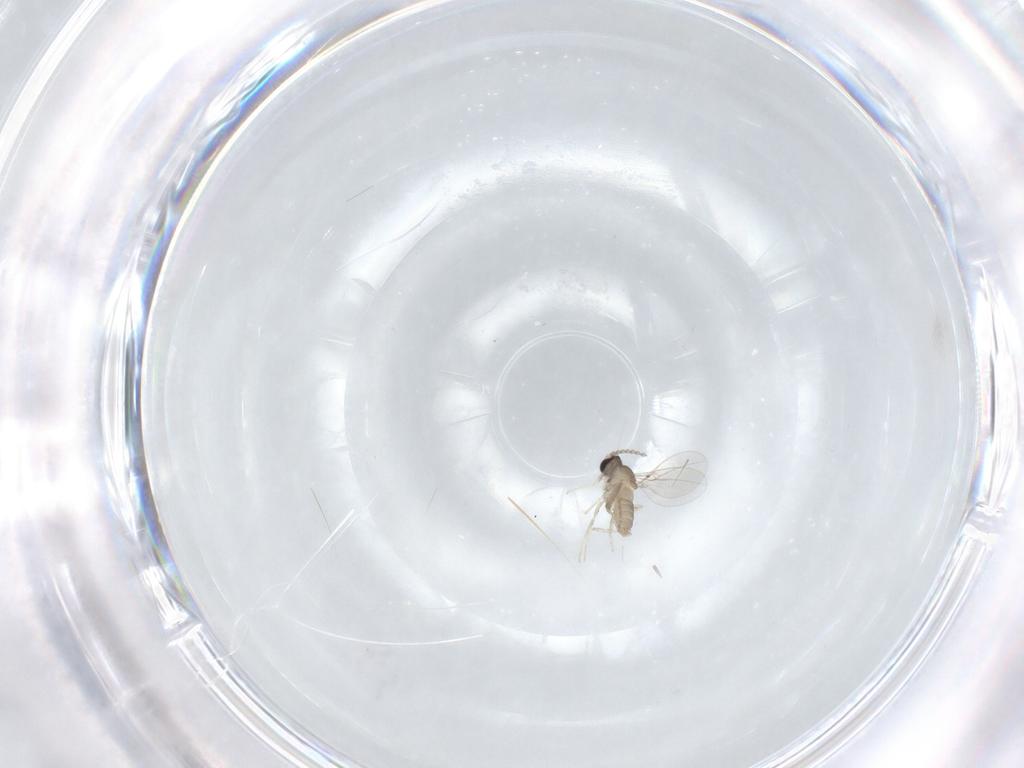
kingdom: Animalia
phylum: Arthropoda
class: Insecta
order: Diptera
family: Cecidomyiidae
